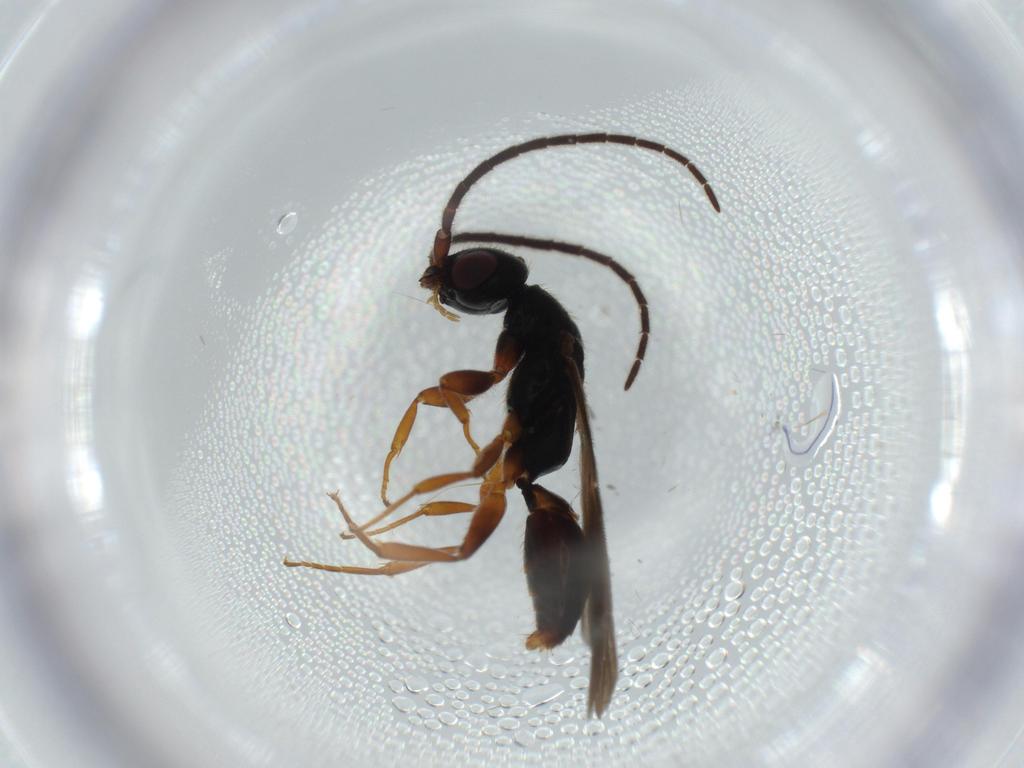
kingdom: Animalia
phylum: Arthropoda
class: Insecta
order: Hymenoptera
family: Bethylidae
